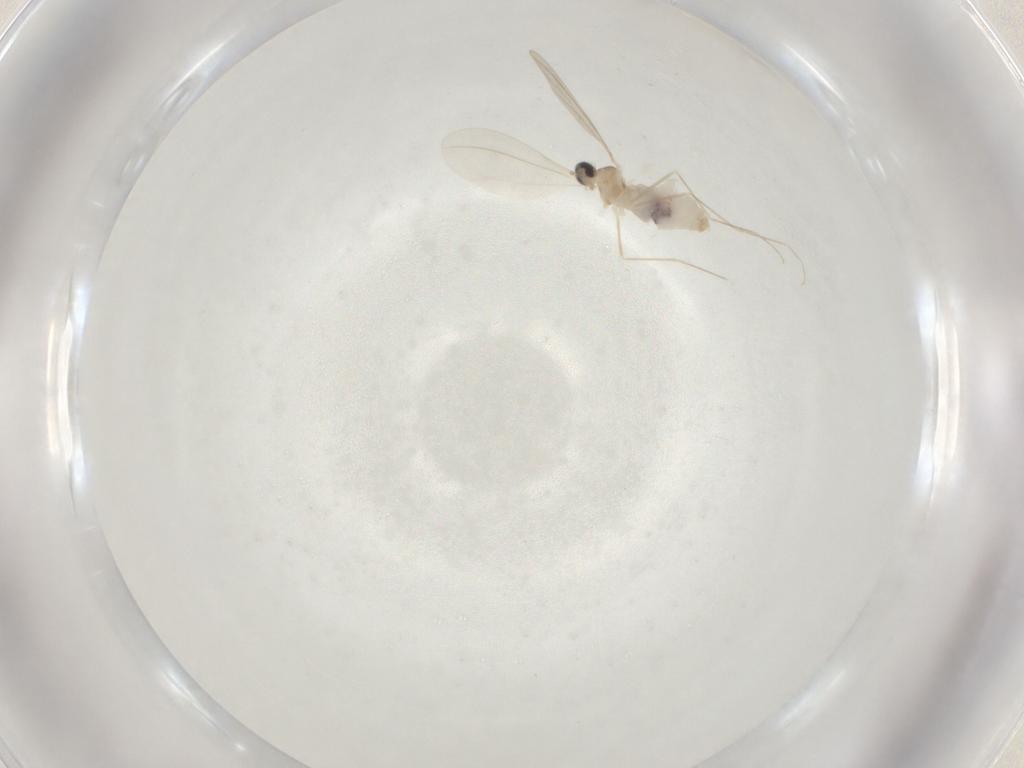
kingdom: Animalia
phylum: Arthropoda
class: Insecta
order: Diptera
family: Cecidomyiidae
